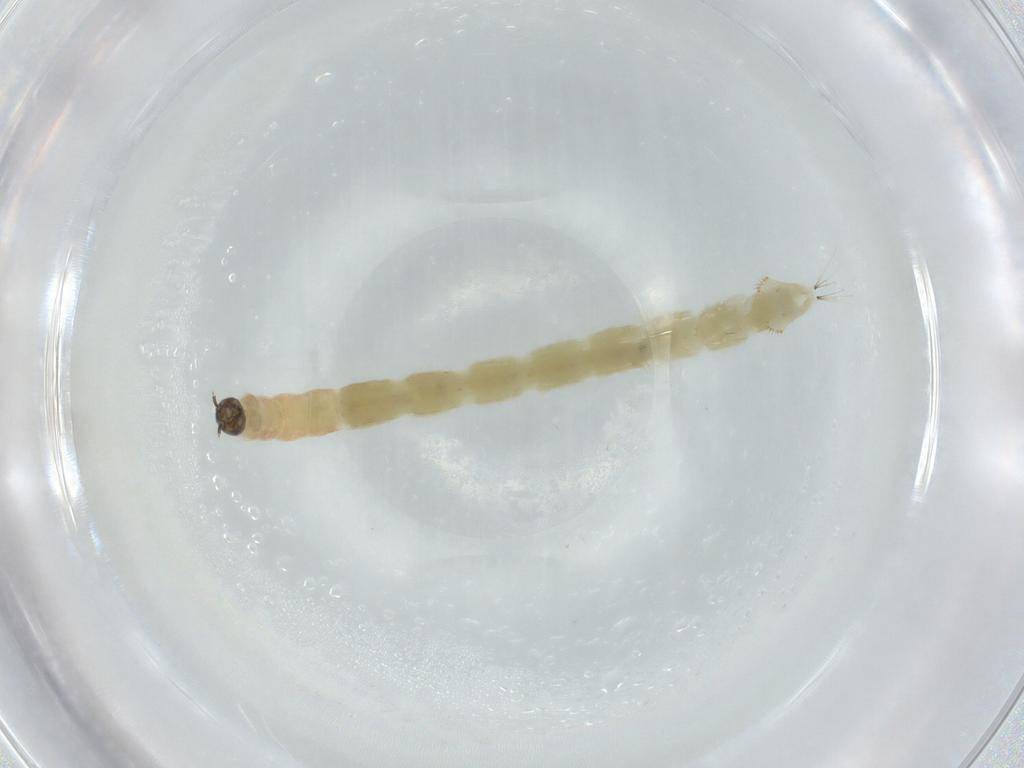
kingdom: Animalia
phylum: Arthropoda
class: Insecta
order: Diptera
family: Chironomidae
